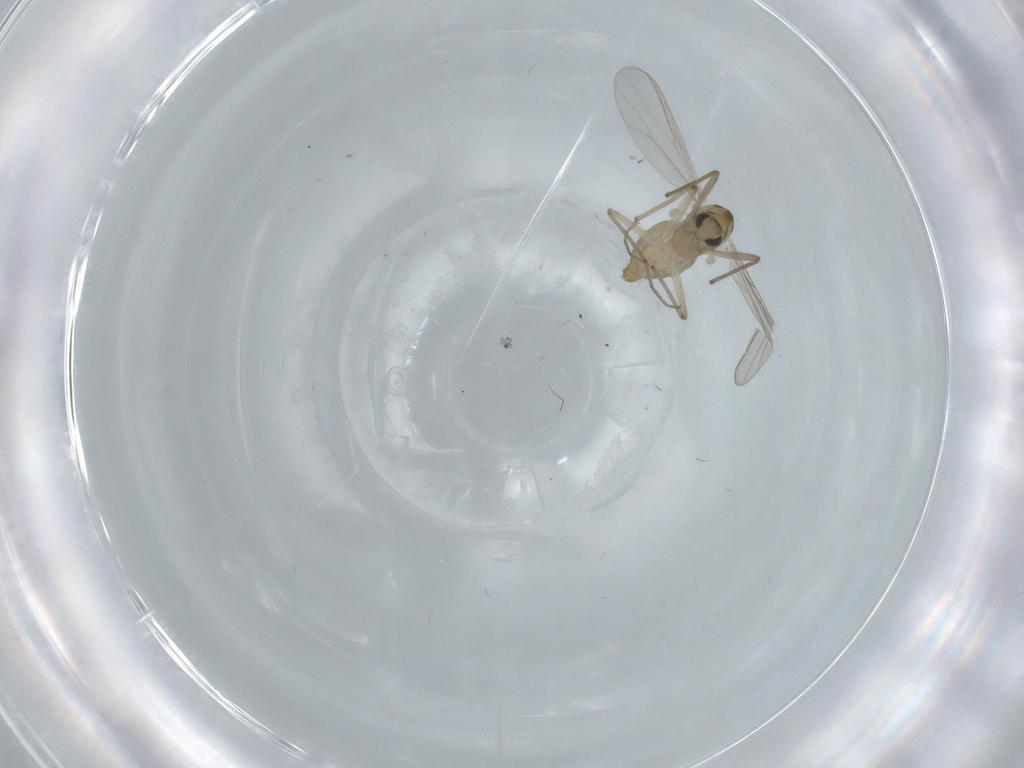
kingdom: Animalia
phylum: Arthropoda
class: Insecta
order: Diptera
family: Chironomidae
